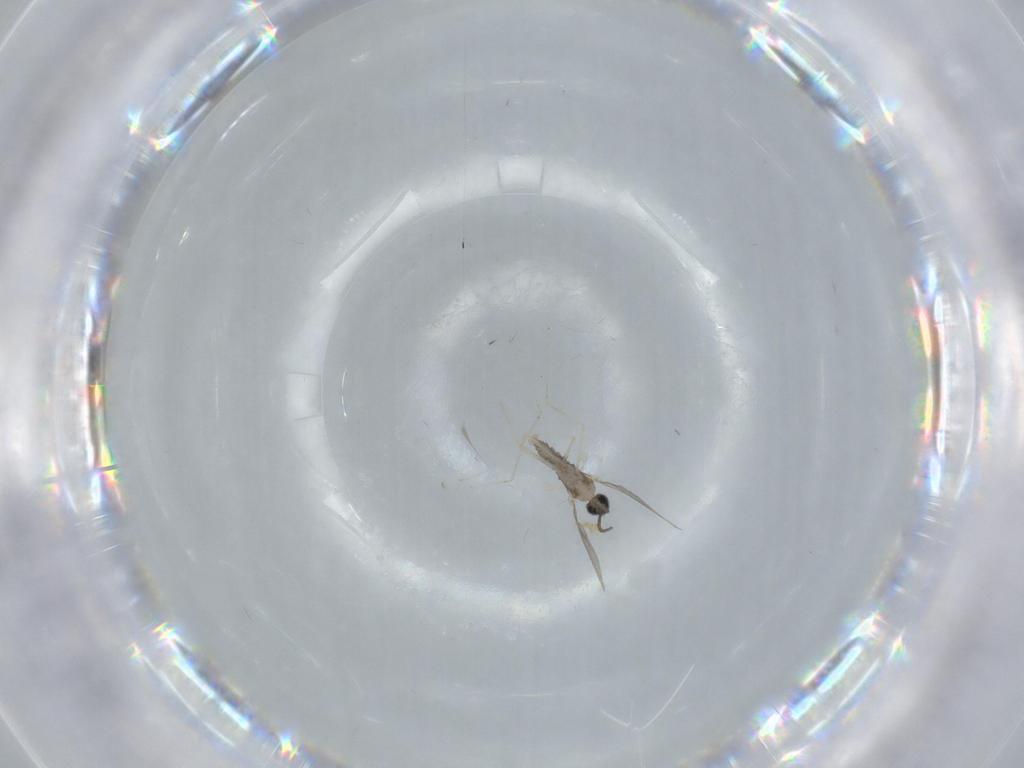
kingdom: Animalia
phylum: Arthropoda
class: Insecta
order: Diptera
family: Cecidomyiidae
